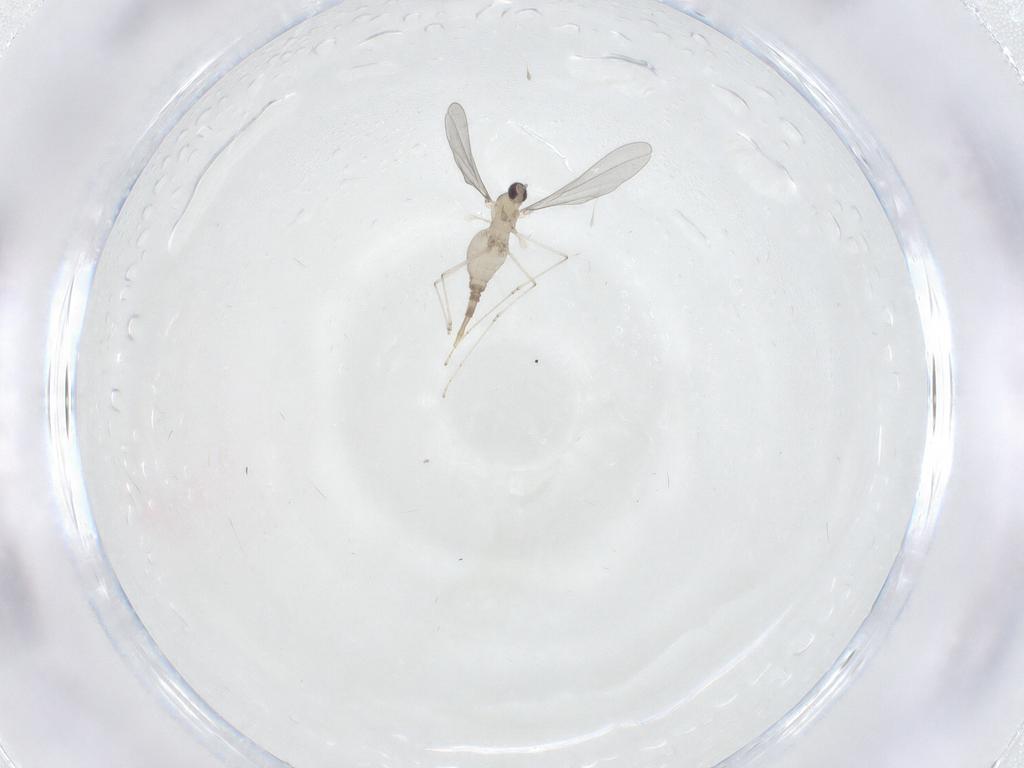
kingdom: Animalia
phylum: Arthropoda
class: Insecta
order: Diptera
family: Cecidomyiidae
